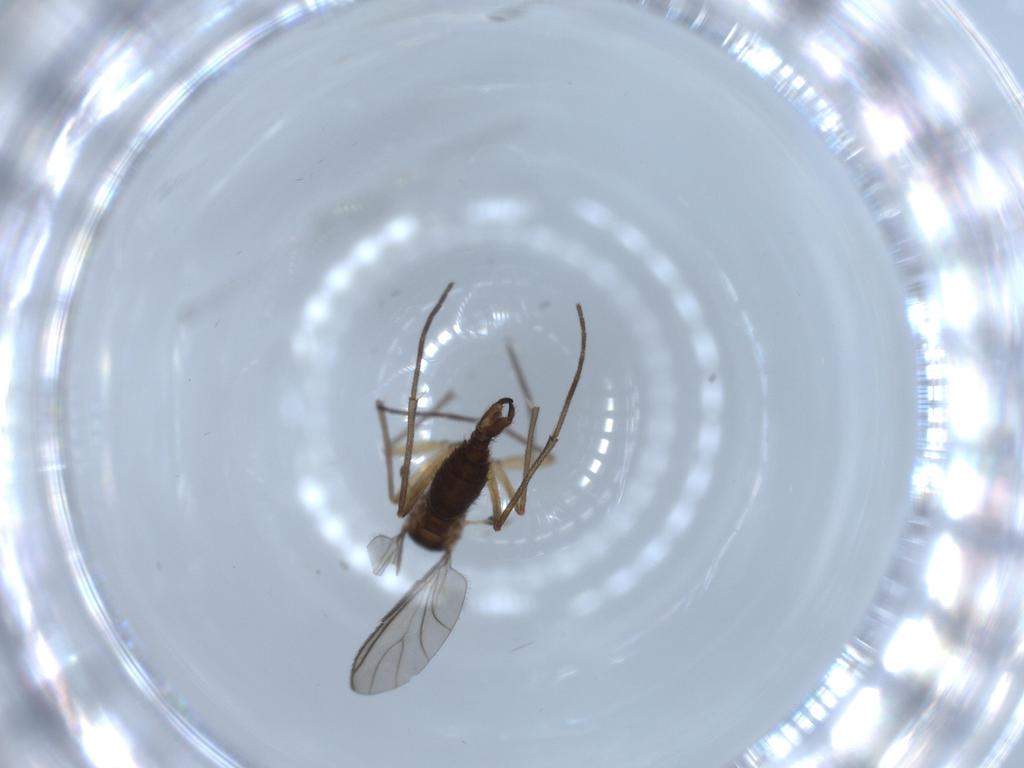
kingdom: Animalia
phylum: Arthropoda
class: Insecta
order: Diptera
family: Sciaridae
